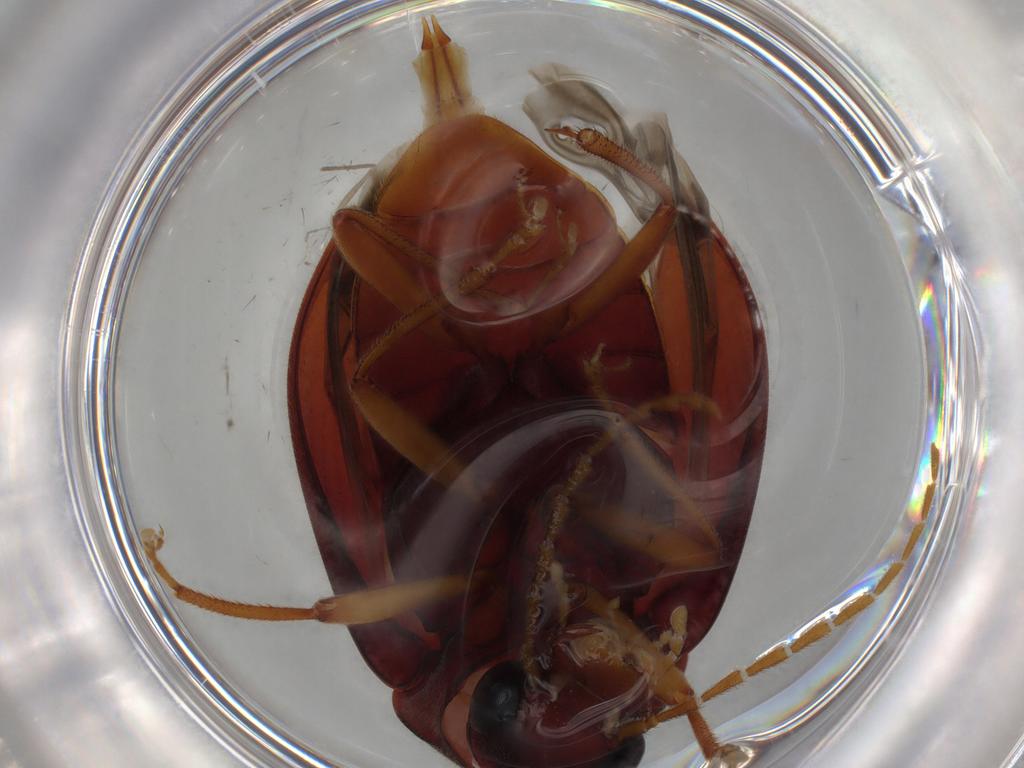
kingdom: Animalia
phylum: Arthropoda
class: Insecta
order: Coleoptera
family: Ptilodactylidae
